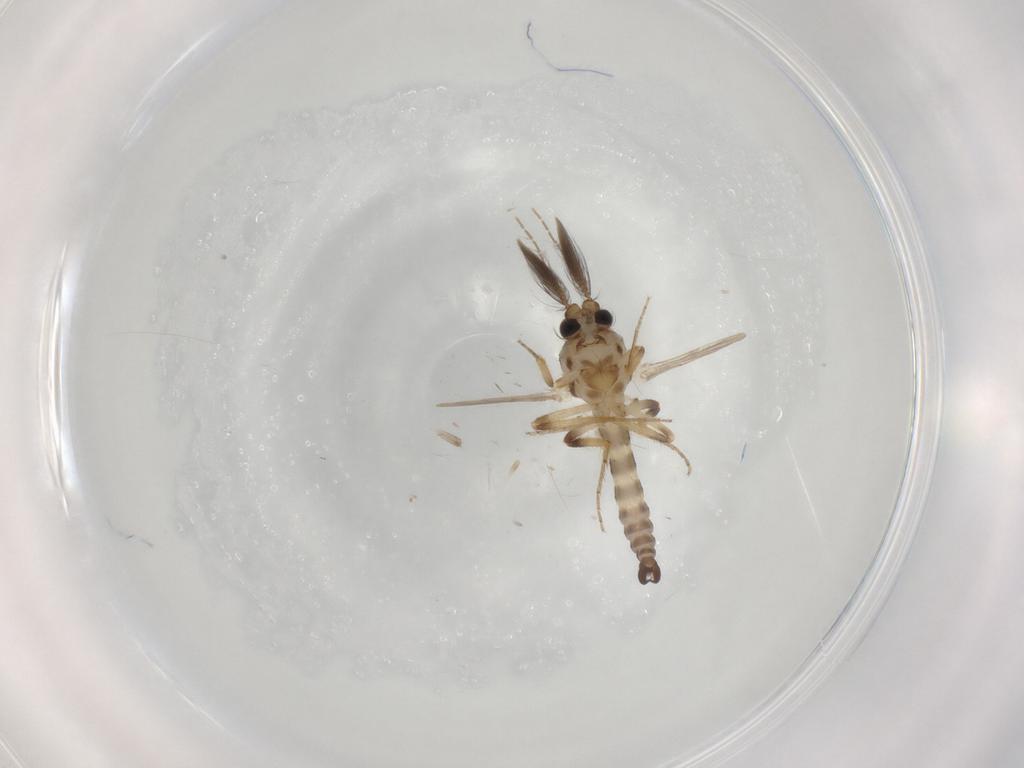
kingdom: Animalia
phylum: Arthropoda
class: Insecta
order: Diptera
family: Ceratopogonidae
